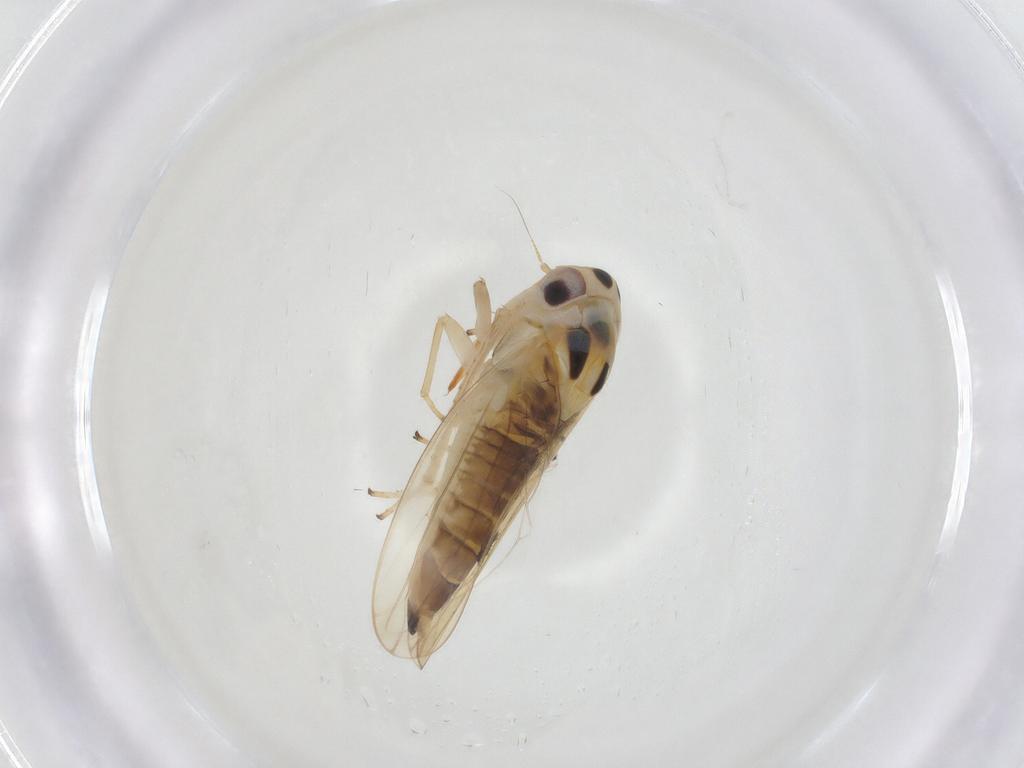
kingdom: Animalia
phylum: Arthropoda
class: Insecta
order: Hemiptera
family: Cicadellidae
